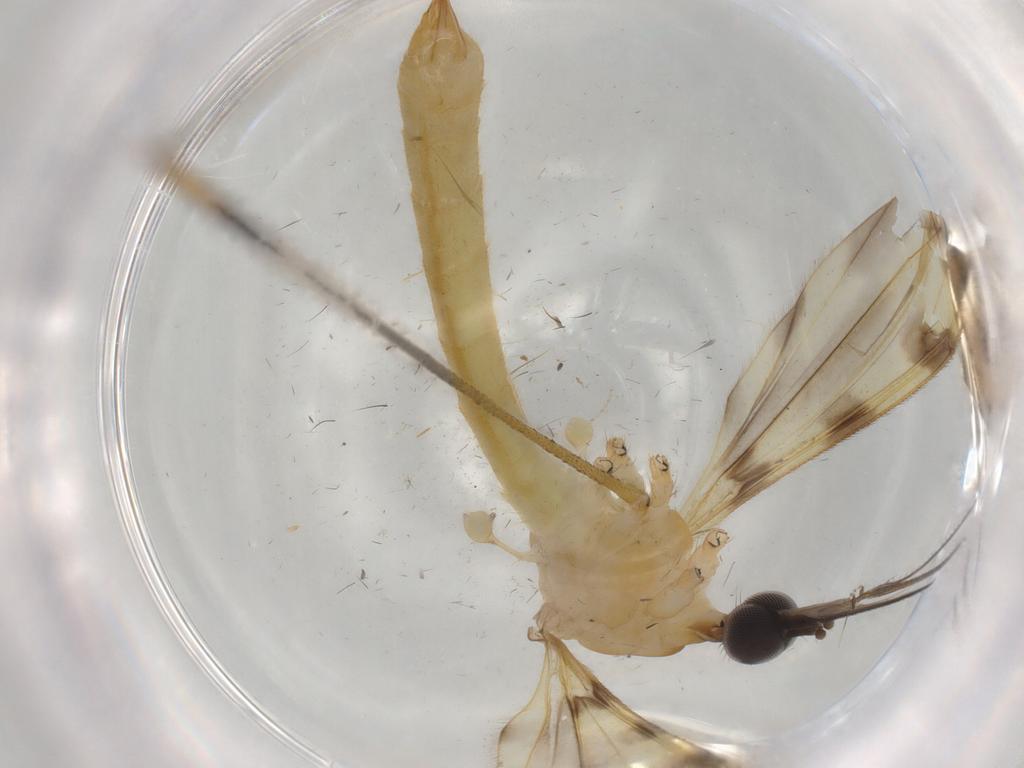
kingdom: Animalia
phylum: Arthropoda
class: Insecta
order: Diptera
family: Limoniidae
